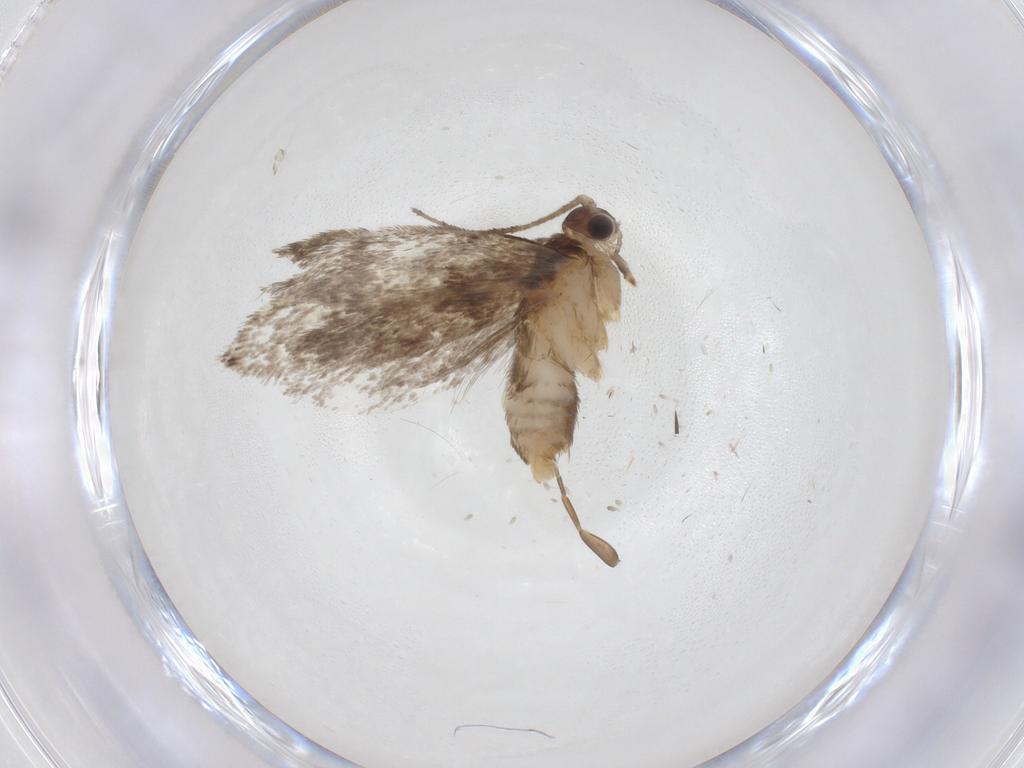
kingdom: Animalia
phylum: Arthropoda
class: Insecta
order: Lepidoptera
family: Dryadaulidae
